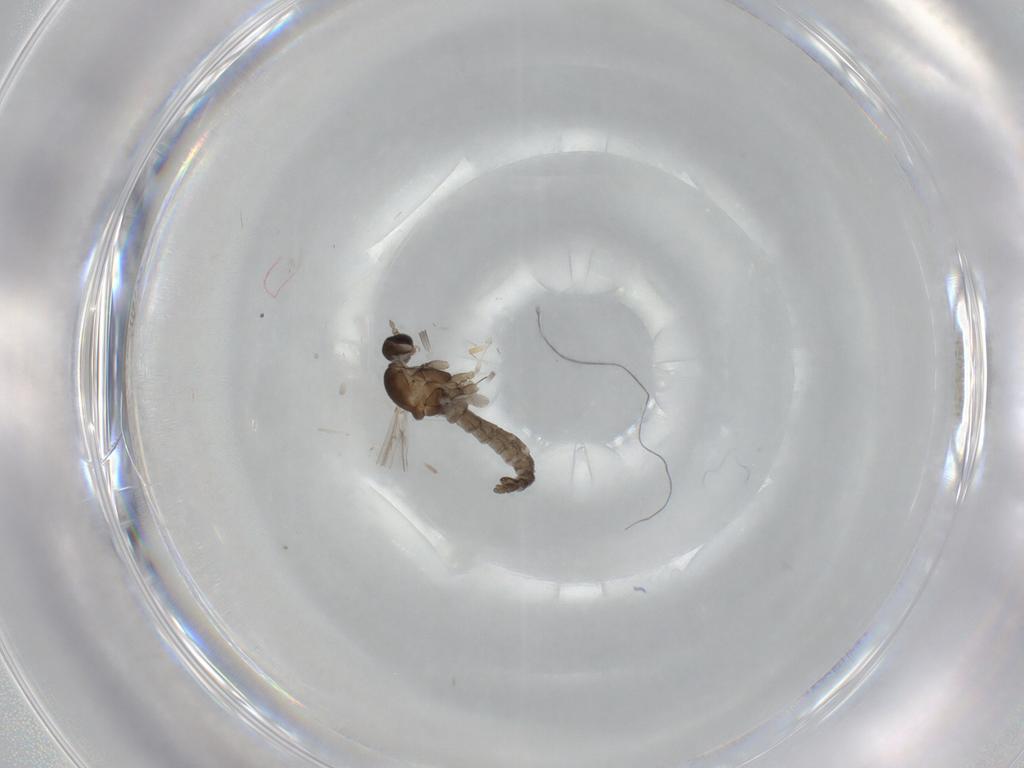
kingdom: Animalia
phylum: Arthropoda
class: Insecta
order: Diptera
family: Cecidomyiidae
